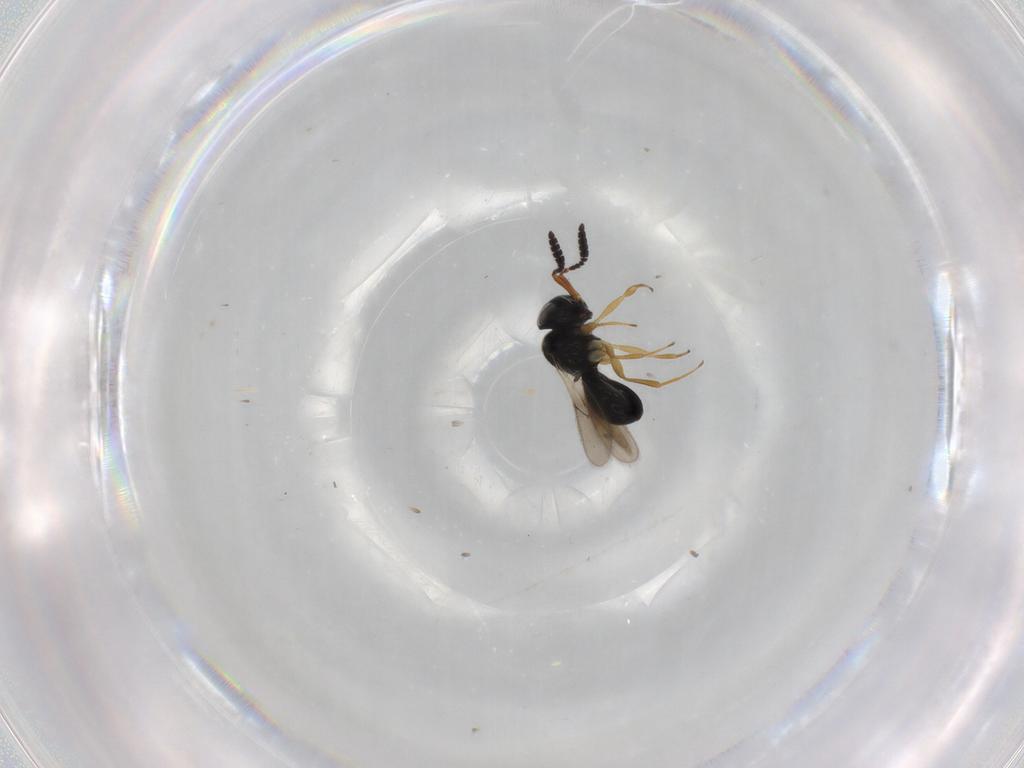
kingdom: Animalia
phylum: Arthropoda
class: Insecta
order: Hymenoptera
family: Scelionidae
